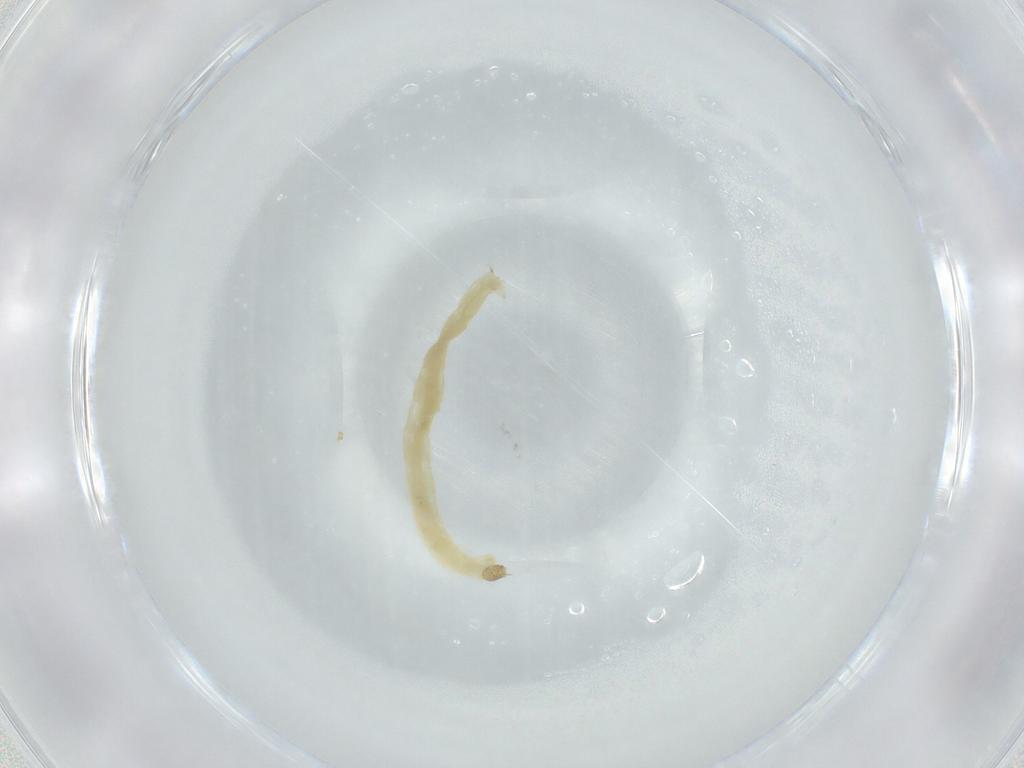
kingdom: Animalia
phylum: Arthropoda
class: Insecta
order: Diptera
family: Chironomidae
